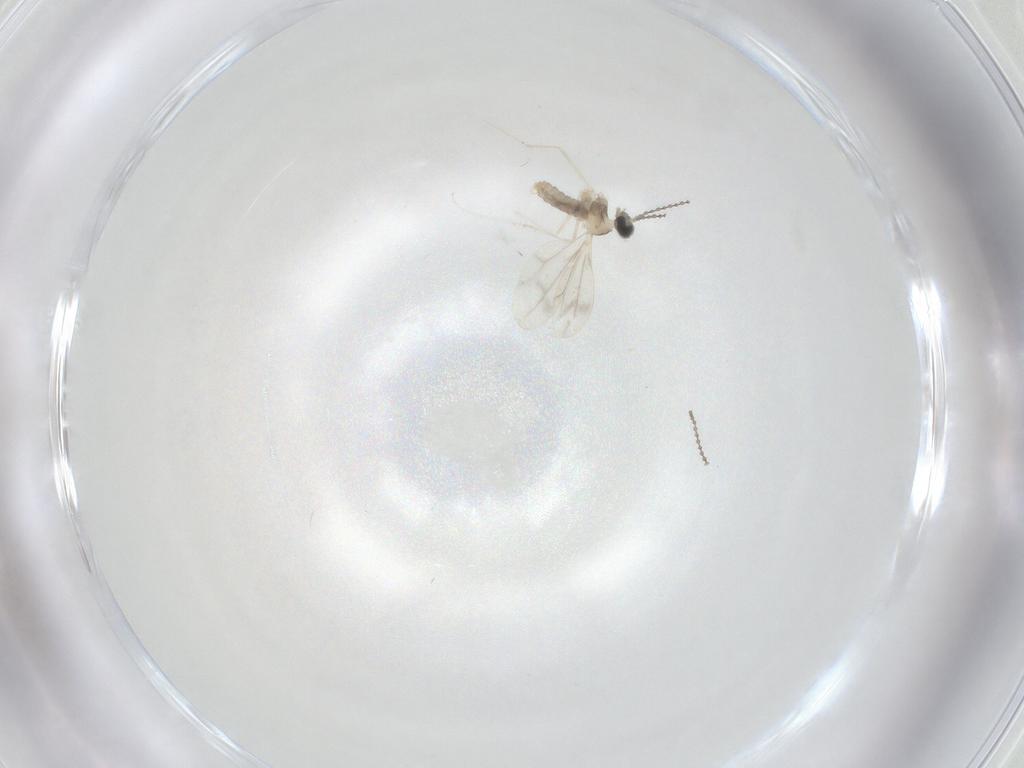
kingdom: Animalia
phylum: Arthropoda
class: Insecta
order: Diptera
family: Cecidomyiidae
